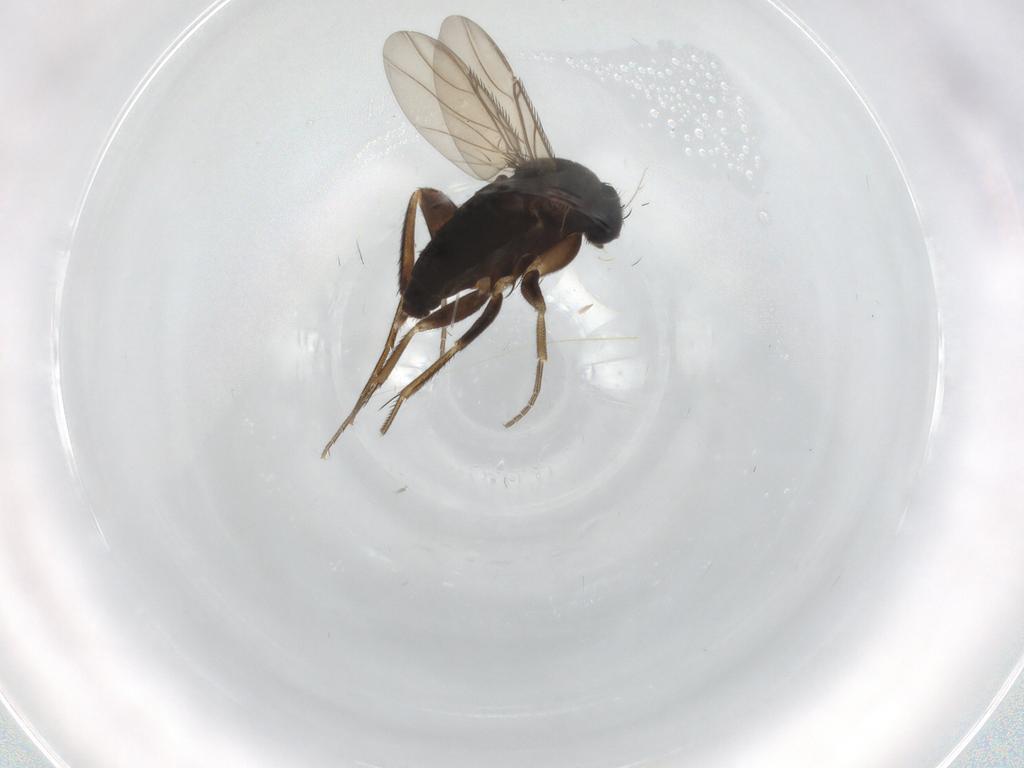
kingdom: Animalia
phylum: Arthropoda
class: Insecta
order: Diptera
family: Phoridae
